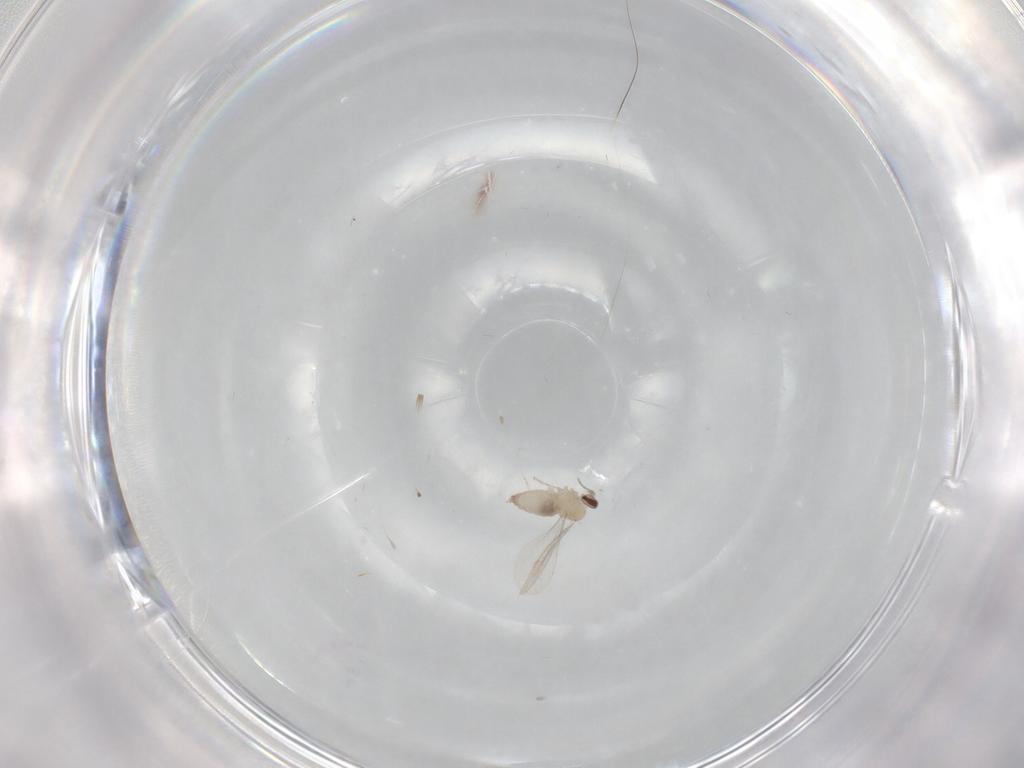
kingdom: Animalia
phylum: Arthropoda
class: Insecta
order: Diptera
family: Cecidomyiidae
